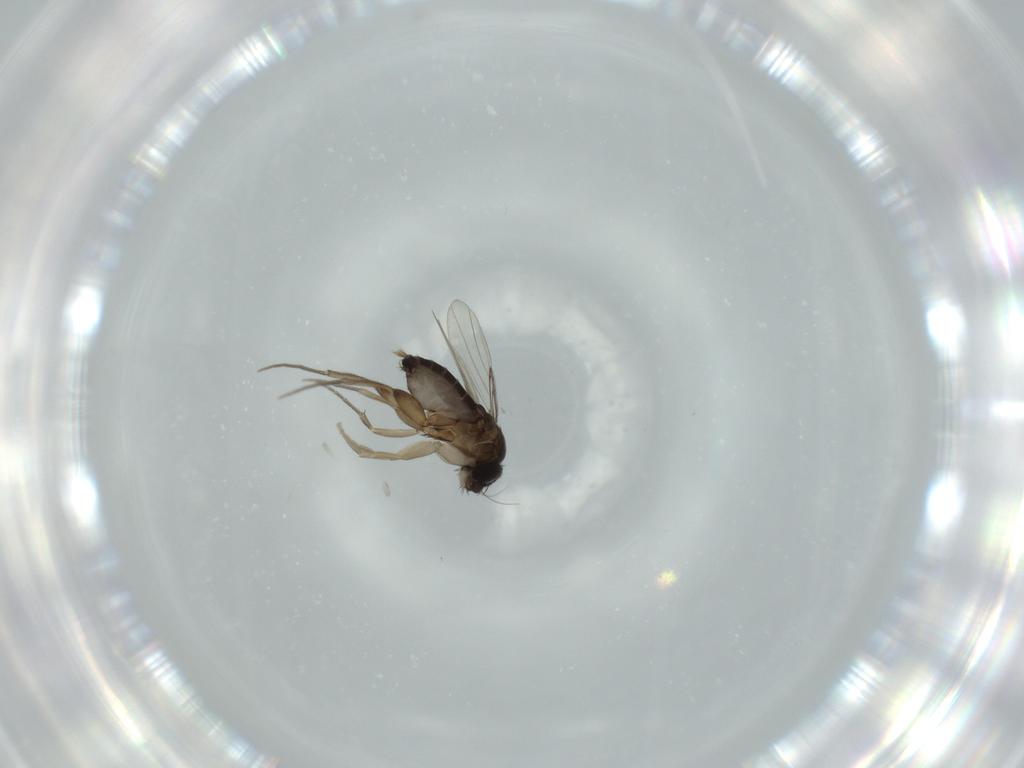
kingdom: Animalia
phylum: Arthropoda
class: Insecta
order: Diptera
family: Phoridae
